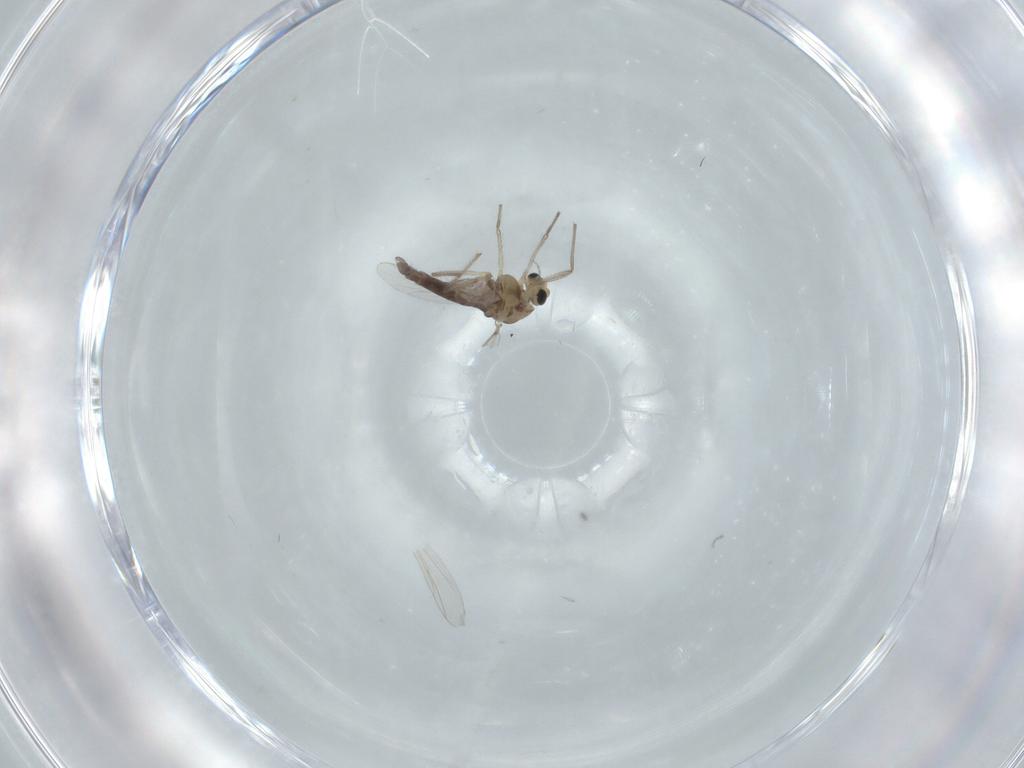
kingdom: Animalia
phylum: Arthropoda
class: Insecta
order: Diptera
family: Chironomidae
